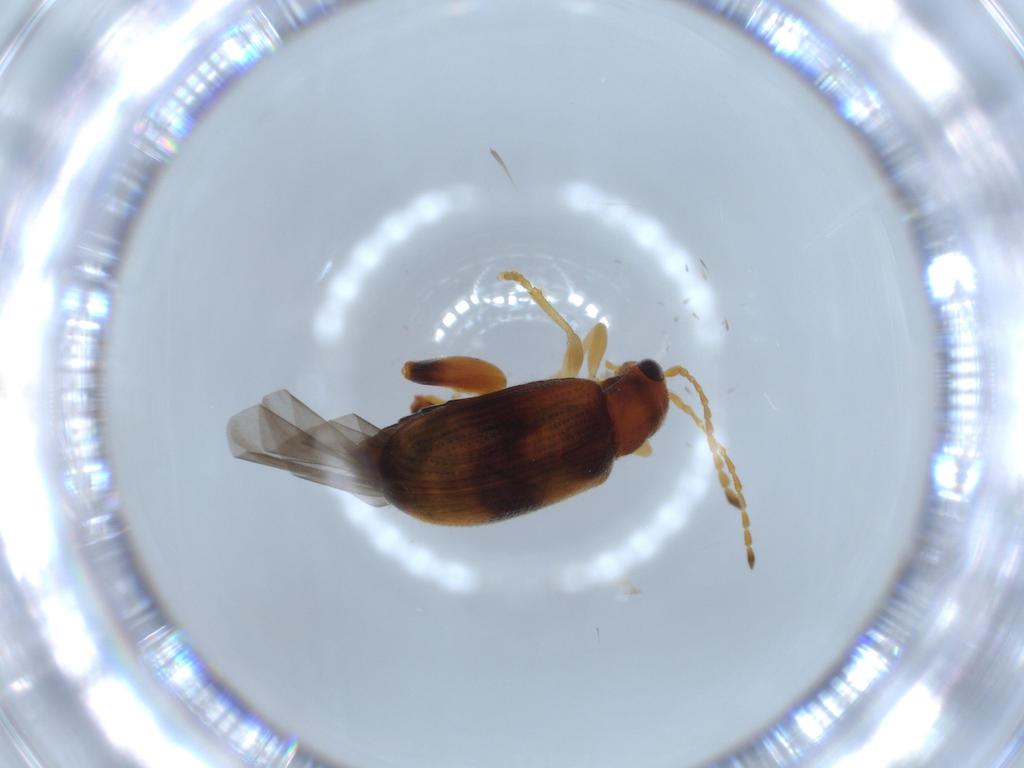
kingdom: Animalia
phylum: Arthropoda
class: Insecta
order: Coleoptera
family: Chrysomelidae
